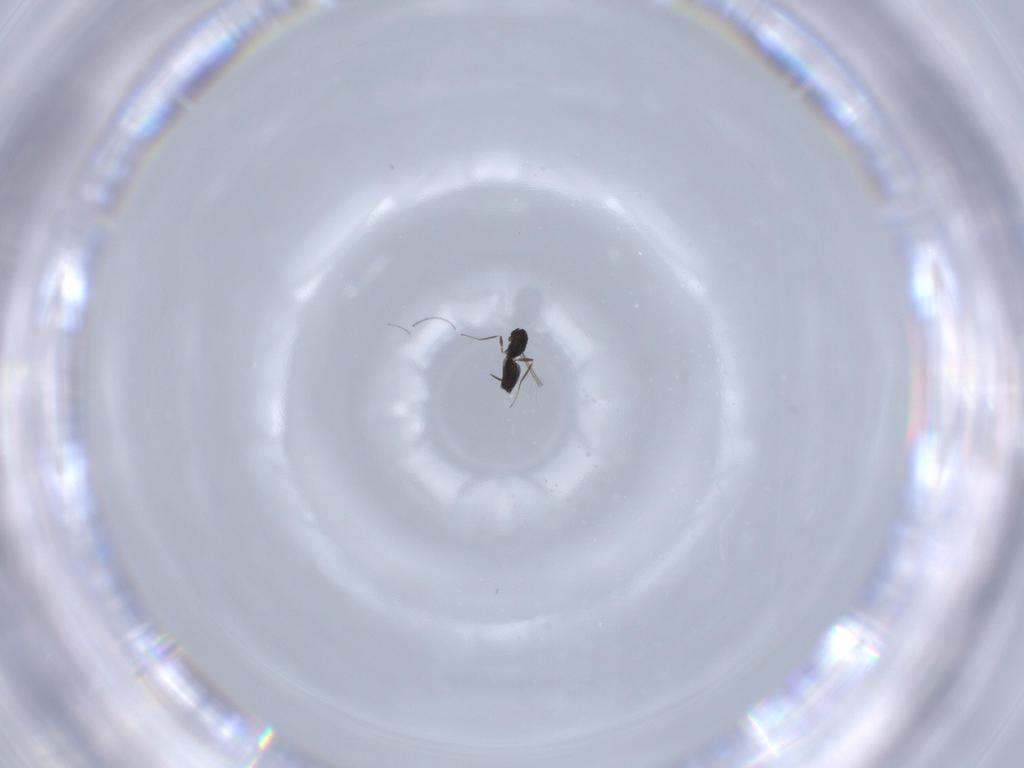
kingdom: Animalia
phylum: Arthropoda
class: Insecta
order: Hymenoptera
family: Mymaridae
